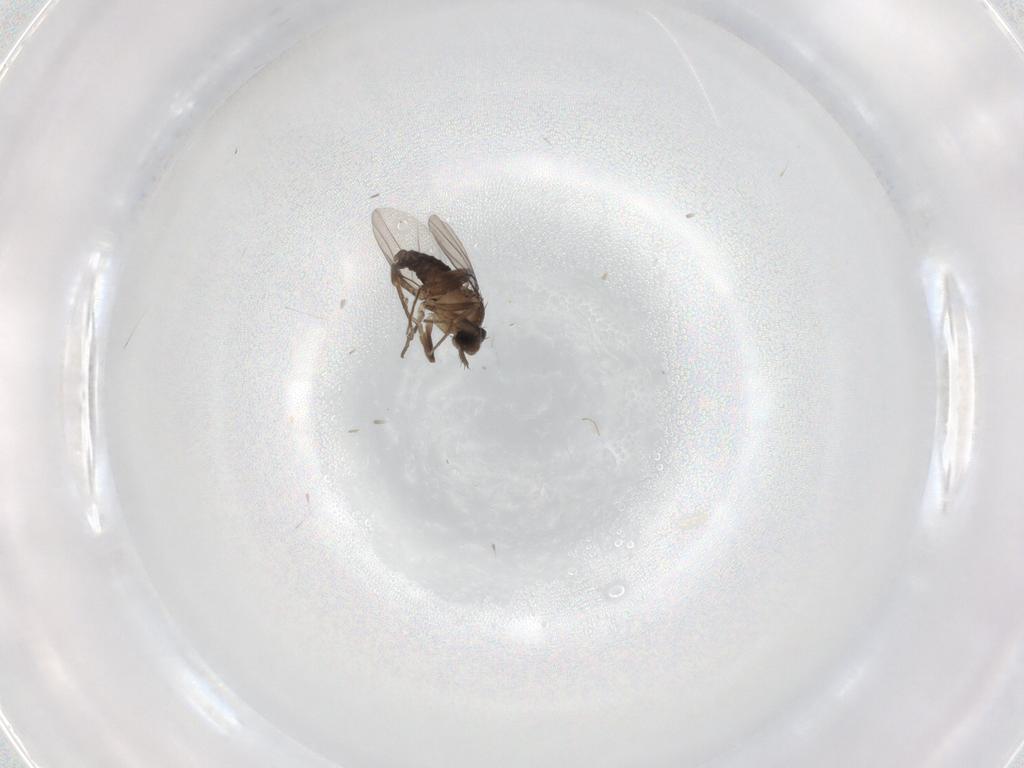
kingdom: Animalia
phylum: Arthropoda
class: Insecta
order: Diptera
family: Phoridae
